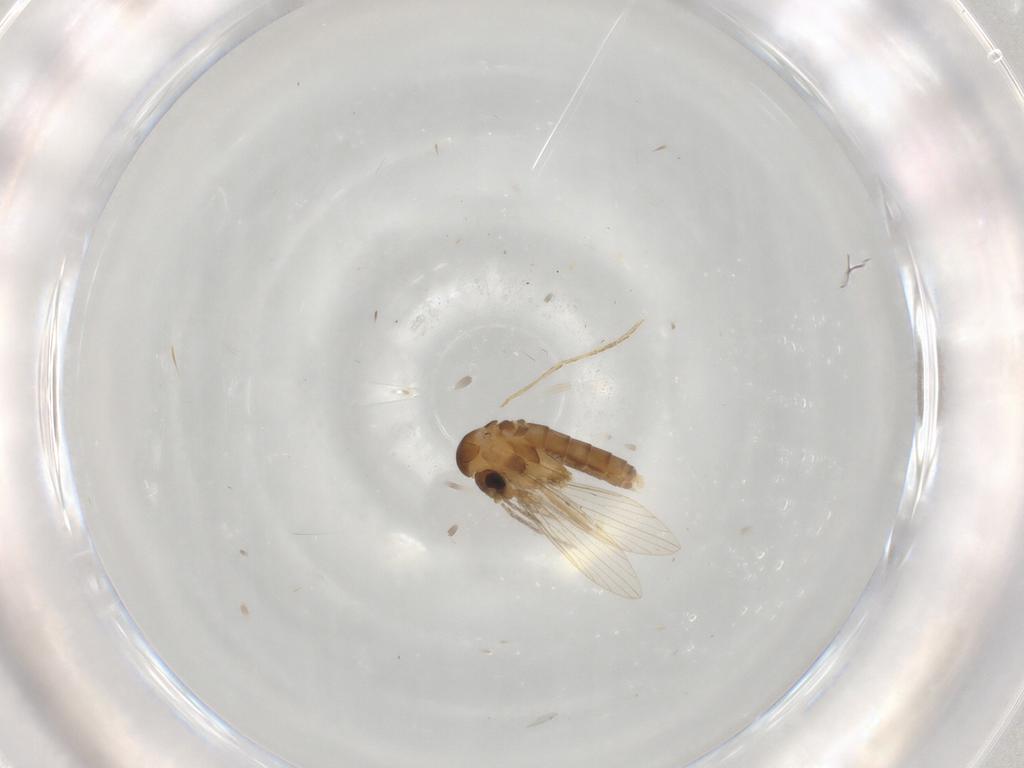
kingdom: Animalia
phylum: Arthropoda
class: Insecta
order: Diptera
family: Psychodidae
